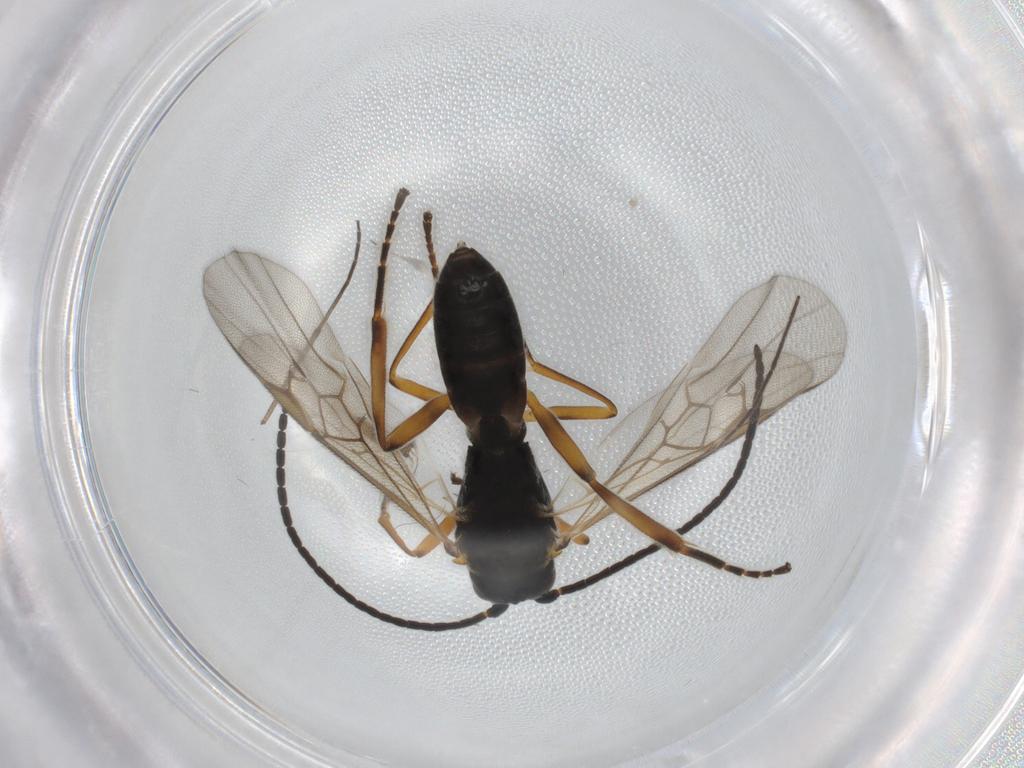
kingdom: Animalia
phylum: Arthropoda
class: Insecta
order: Hymenoptera
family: Braconidae
